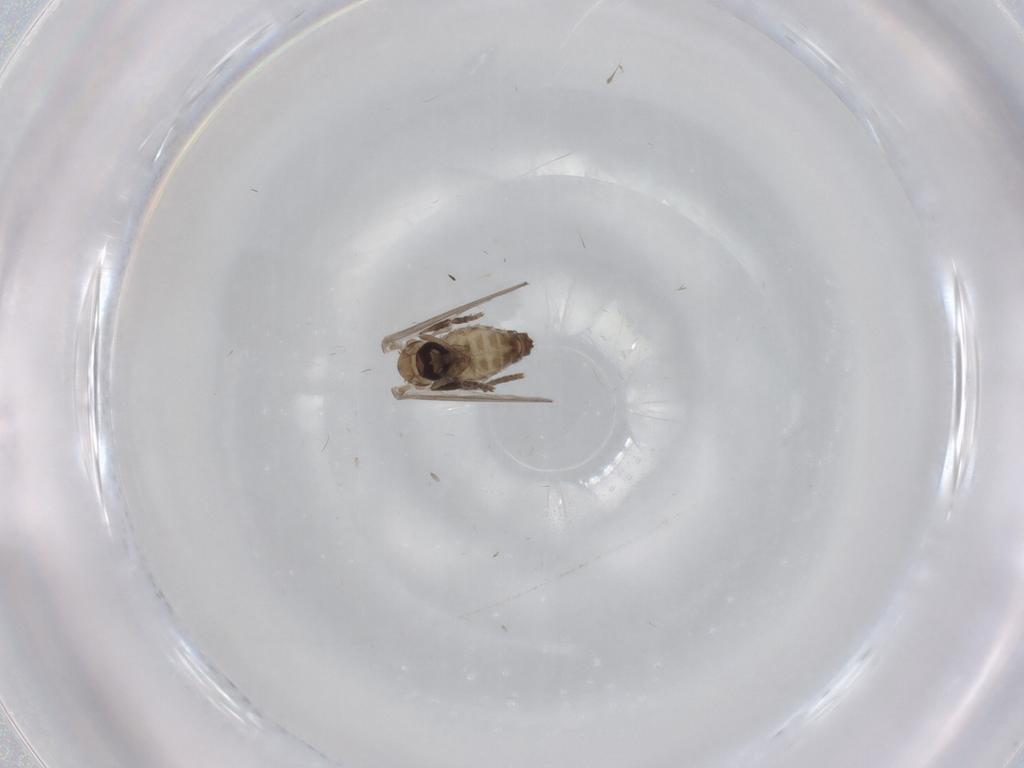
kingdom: Animalia
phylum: Arthropoda
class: Insecta
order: Diptera
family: Psychodidae
